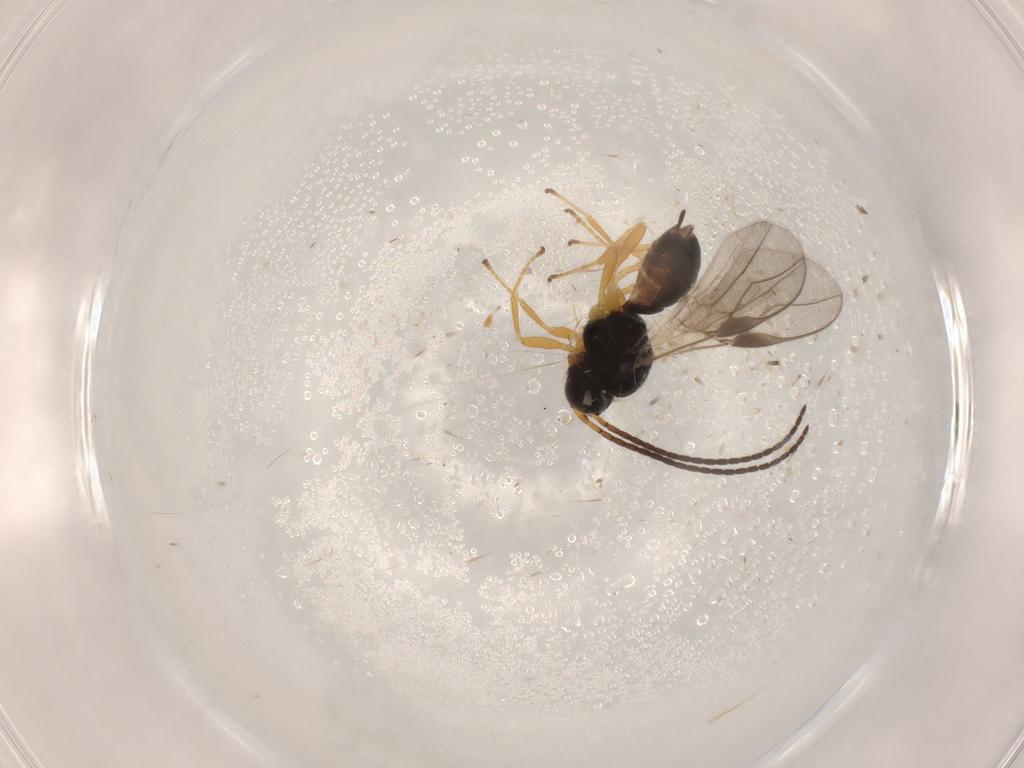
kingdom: Animalia
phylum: Arthropoda
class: Insecta
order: Hymenoptera
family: Braconidae
